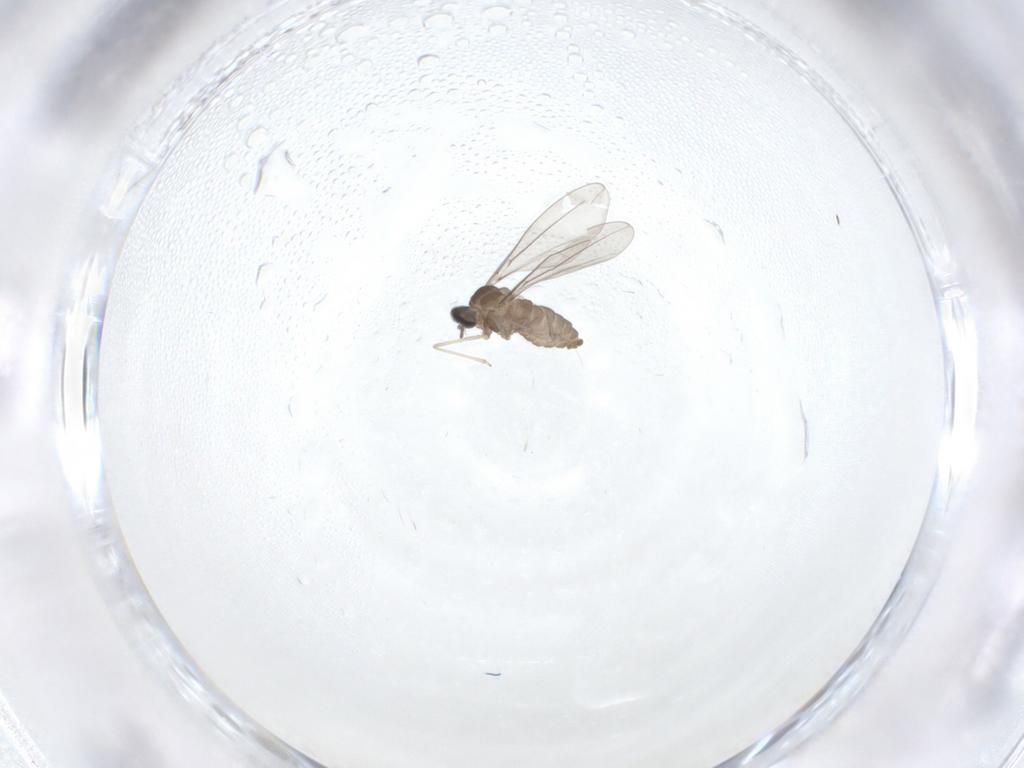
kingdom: Animalia
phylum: Arthropoda
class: Insecta
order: Diptera
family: Cecidomyiidae
